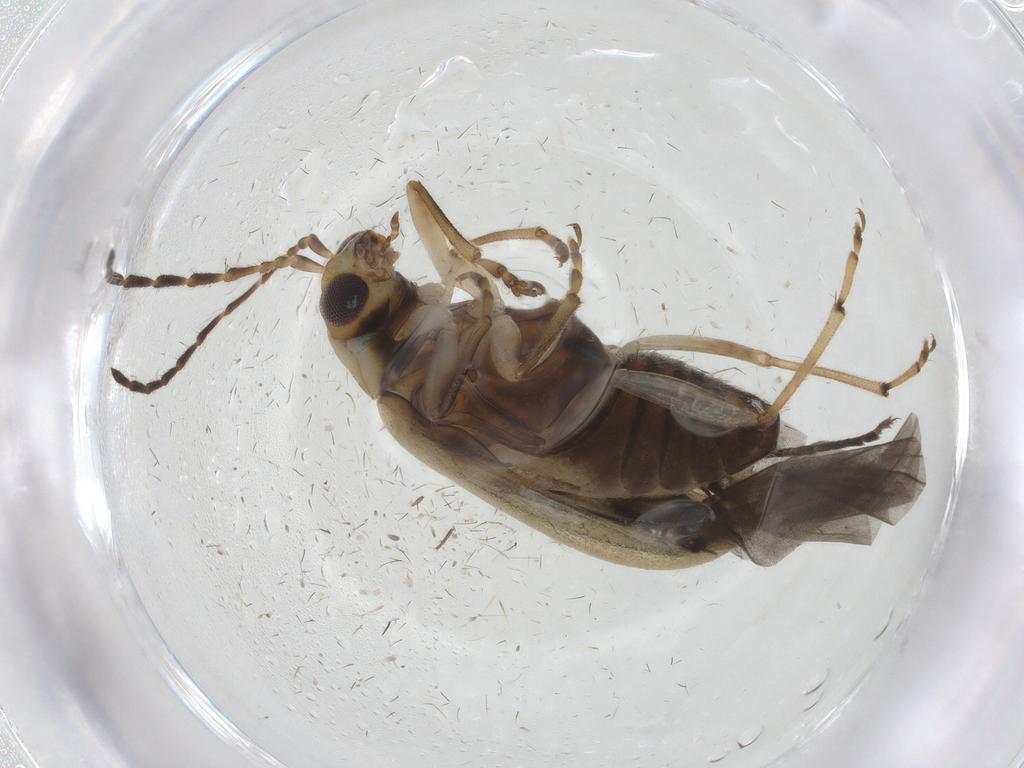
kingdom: Animalia
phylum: Arthropoda
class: Insecta
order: Coleoptera
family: Chrysomelidae
